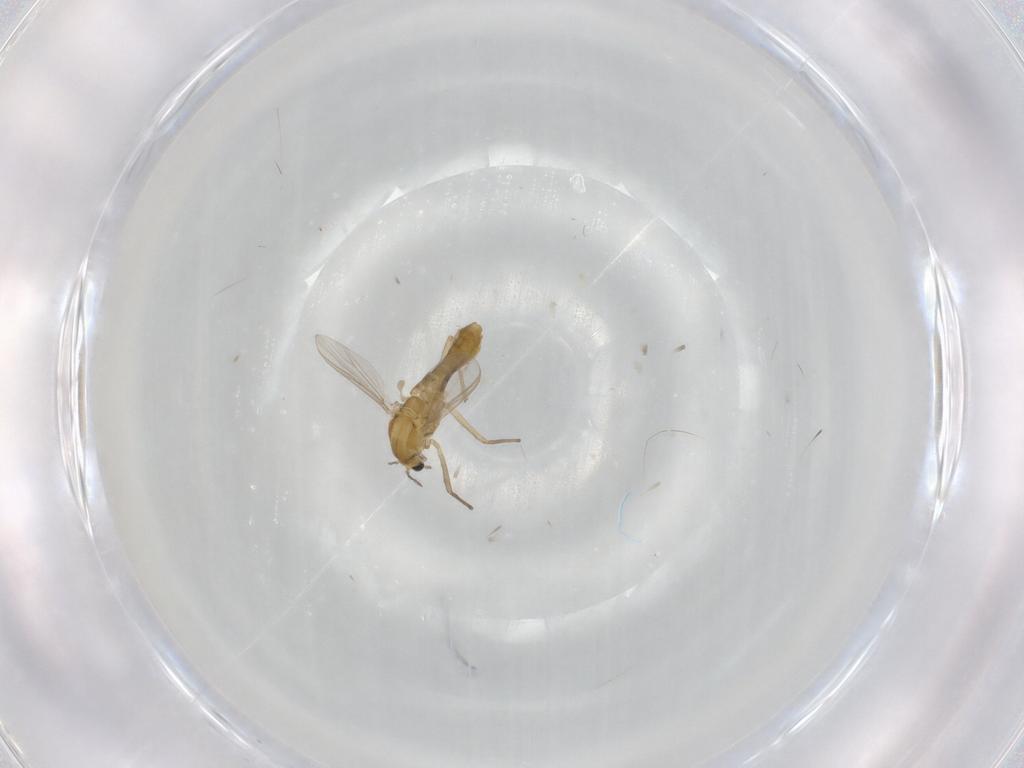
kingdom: Animalia
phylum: Arthropoda
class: Insecta
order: Diptera
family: Chironomidae
